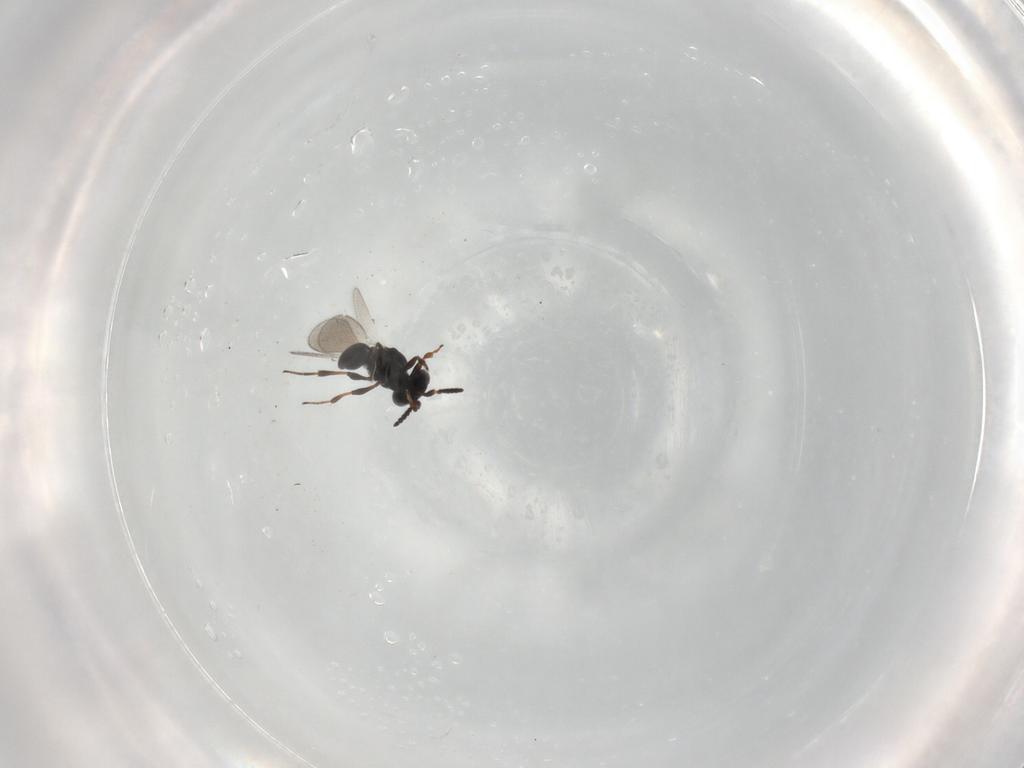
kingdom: Animalia
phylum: Arthropoda
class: Insecta
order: Hymenoptera
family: Platygastridae
